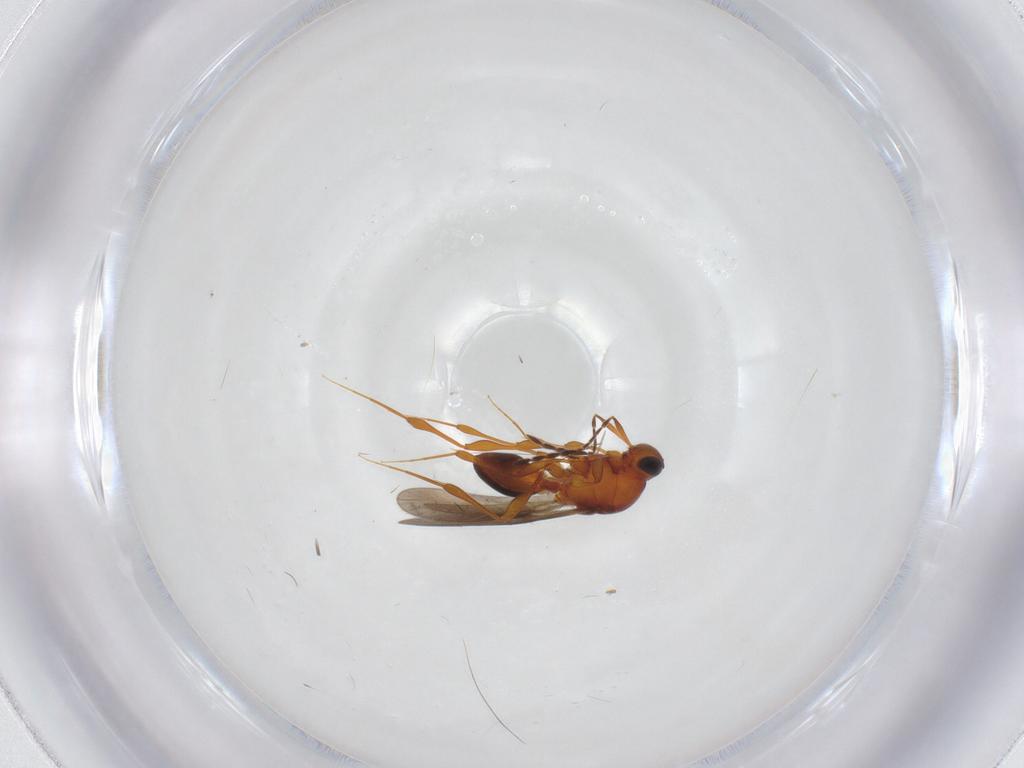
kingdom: Animalia
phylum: Arthropoda
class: Insecta
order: Hymenoptera
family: Platygastridae
